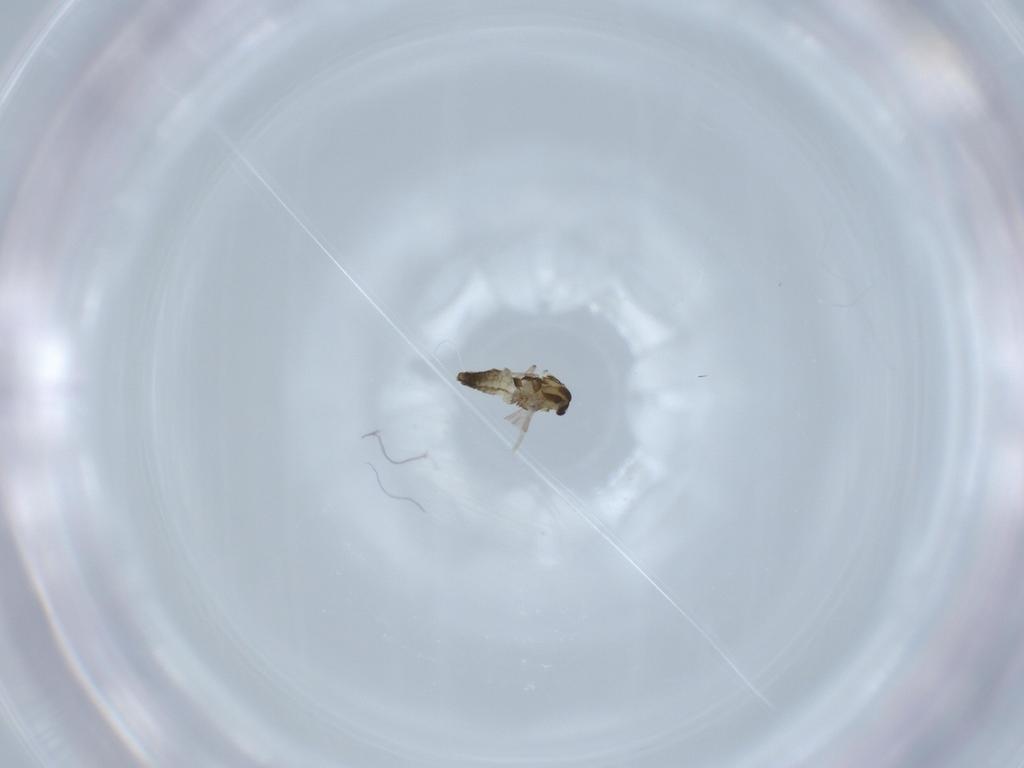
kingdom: Animalia
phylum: Arthropoda
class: Insecta
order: Diptera
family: Chironomidae
